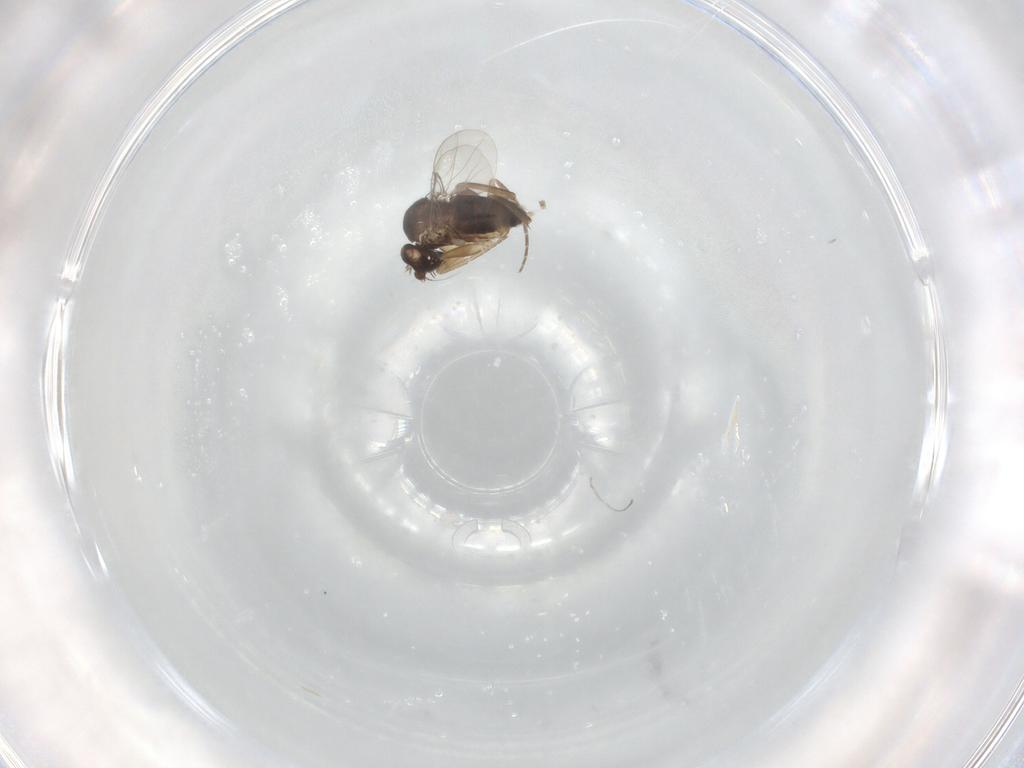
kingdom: Animalia
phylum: Arthropoda
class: Insecta
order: Diptera
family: Phoridae
